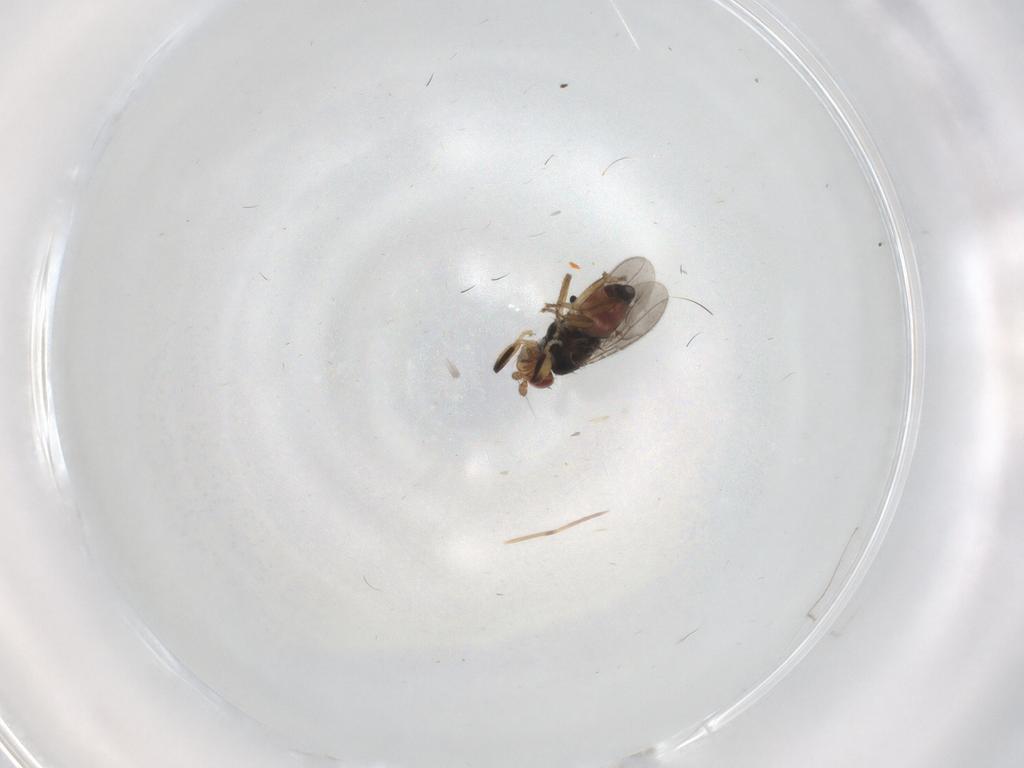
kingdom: Animalia
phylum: Arthropoda
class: Insecta
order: Diptera
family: Sphaeroceridae
